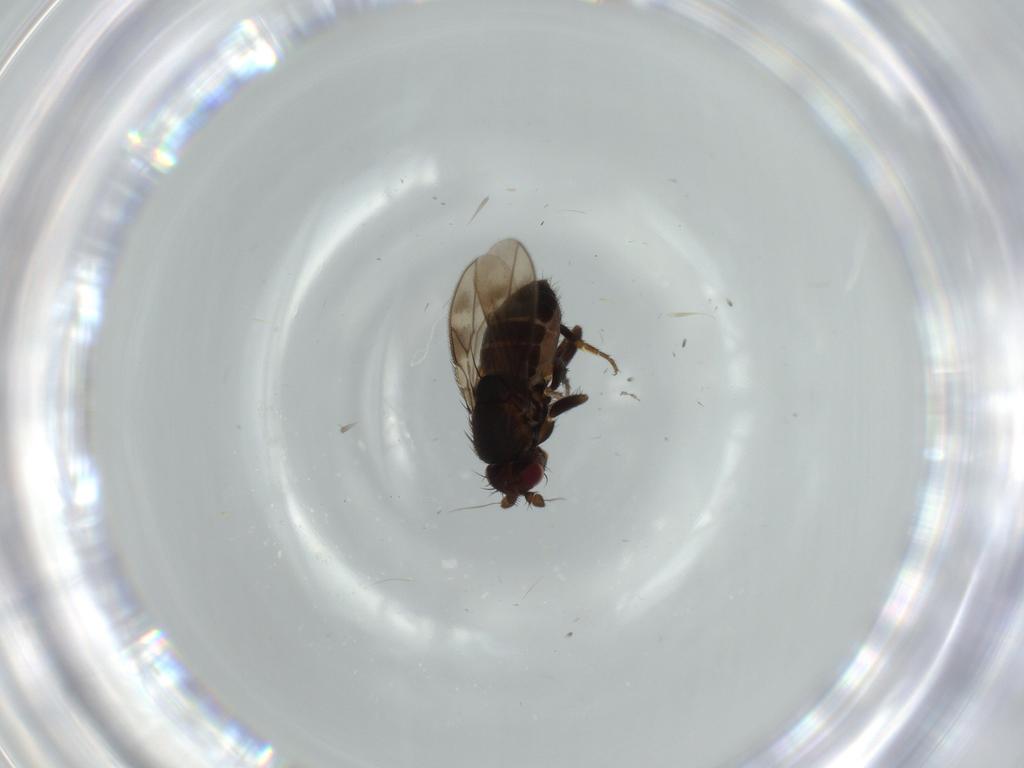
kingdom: Animalia
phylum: Arthropoda
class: Insecta
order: Diptera
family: Sphaeroceridae
